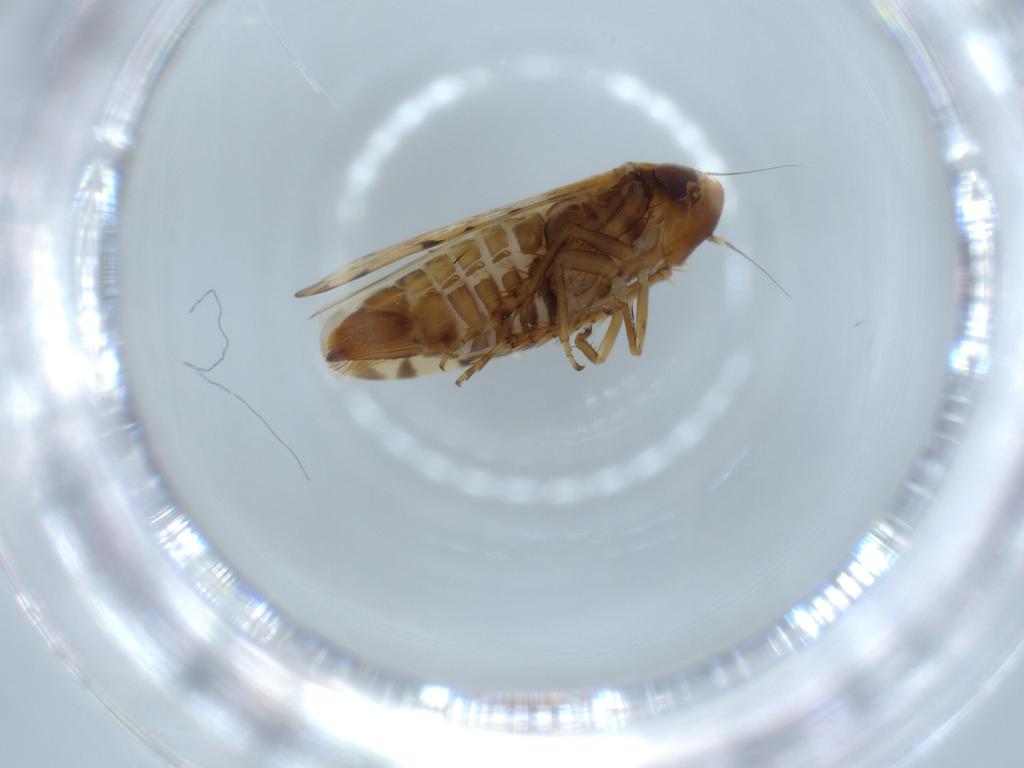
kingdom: Animalia
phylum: Arthropoda
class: Insecta
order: Hemiptera
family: Cicadellidae
